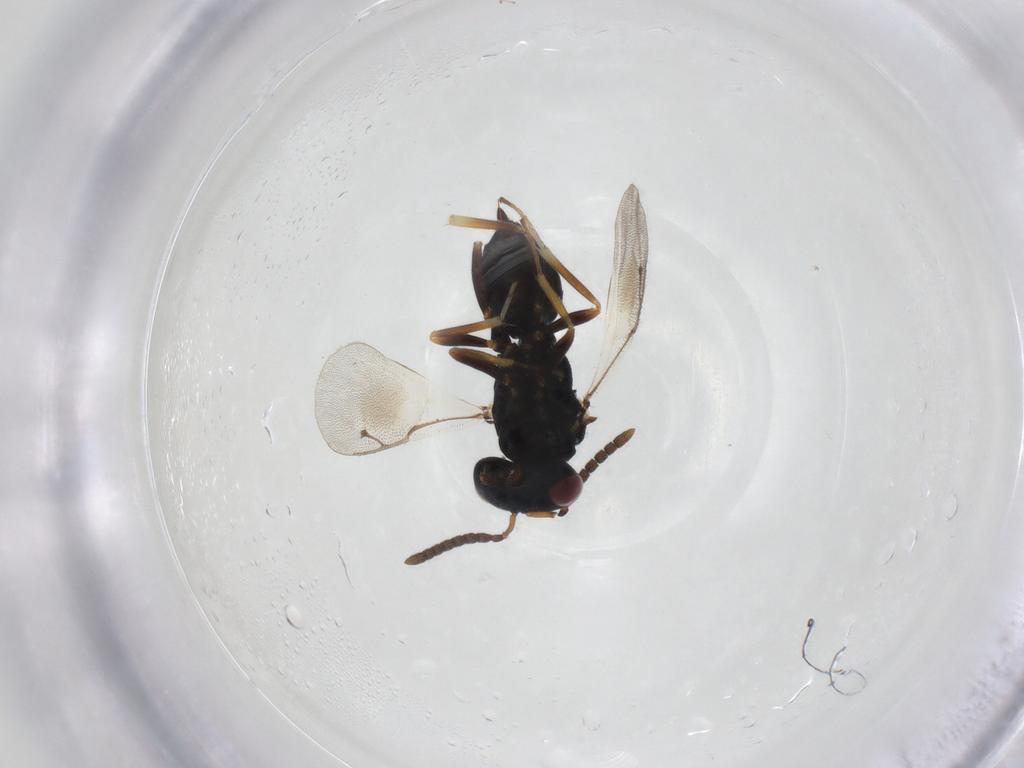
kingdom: Animalia
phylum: Arthropoda
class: Insecta
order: Hymenoptera
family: Pteromalidae
